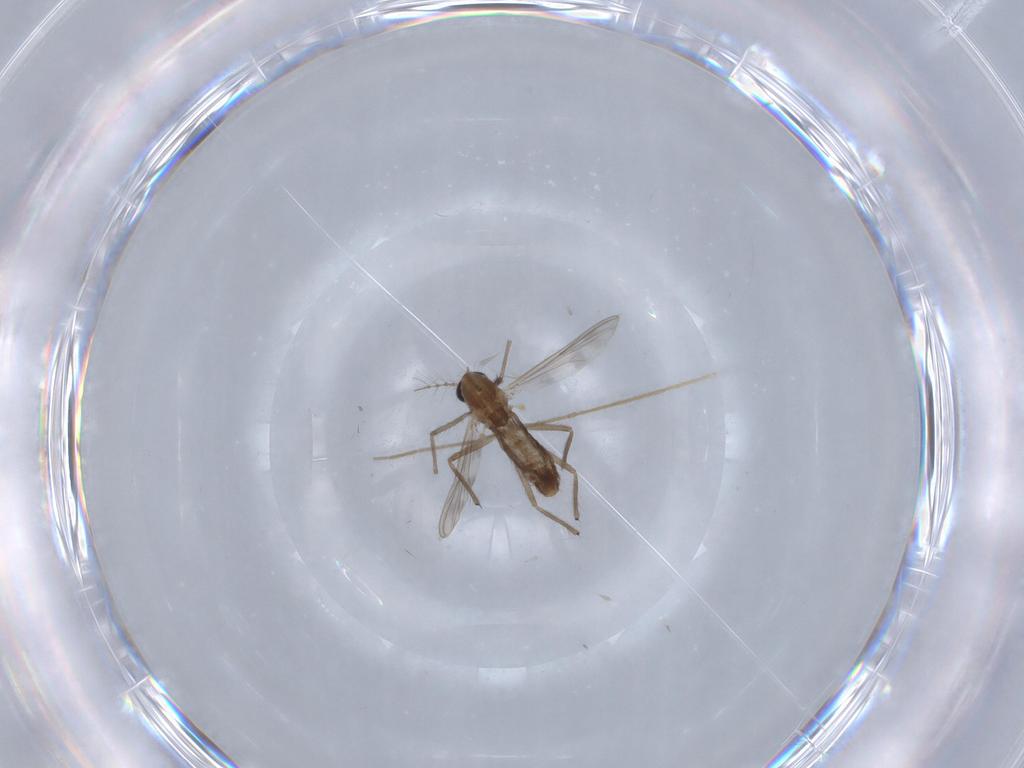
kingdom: Animalia
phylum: Arthropoda
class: Insecta
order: Diptera
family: Chironomidae
